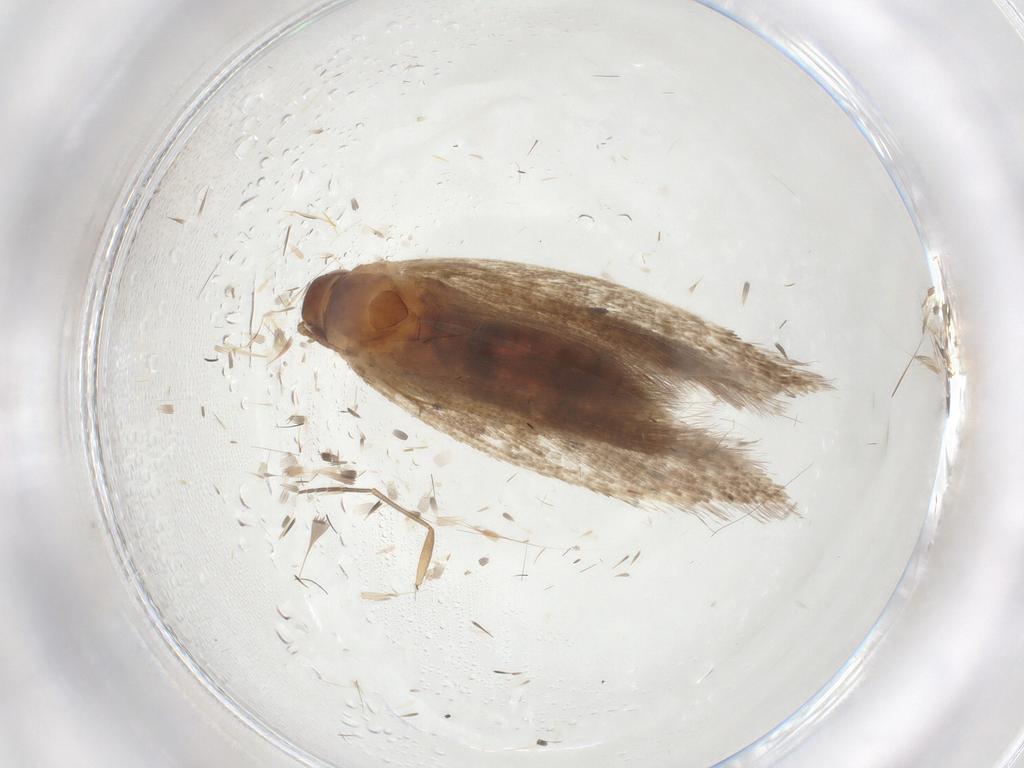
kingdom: Animalia
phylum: Arthropoda
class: Insecta
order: Lepidoptera
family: Gelechiidae
